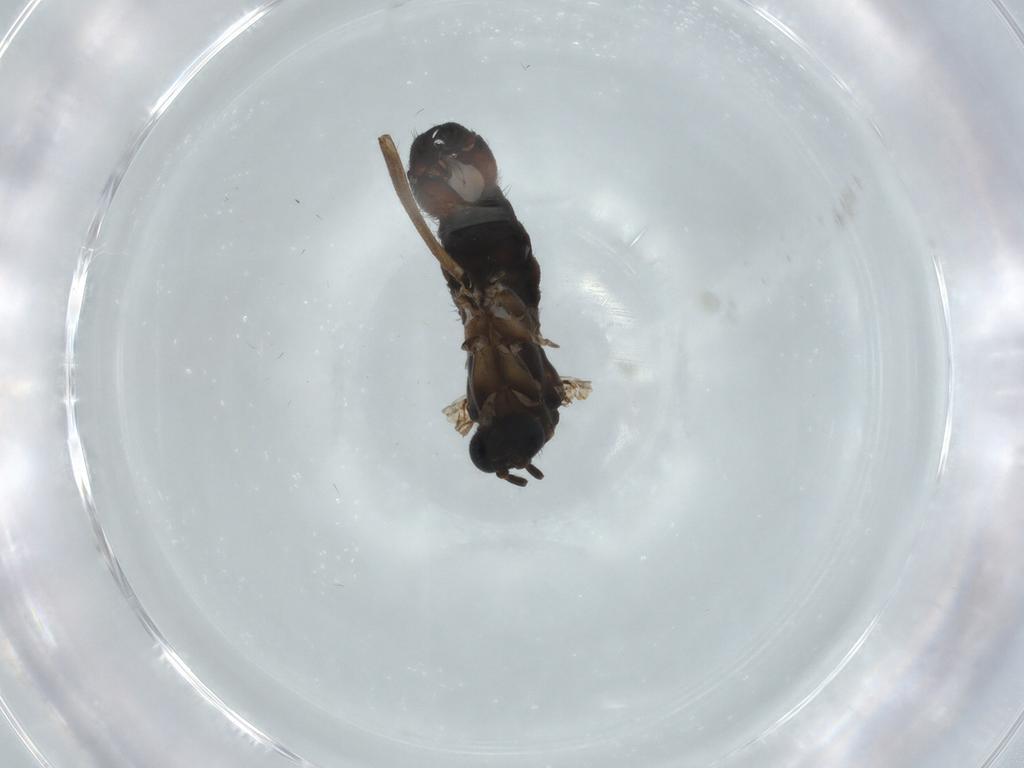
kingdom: Animalia
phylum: Arthropoda
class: Insecta
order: Diptera
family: Sciaridae
